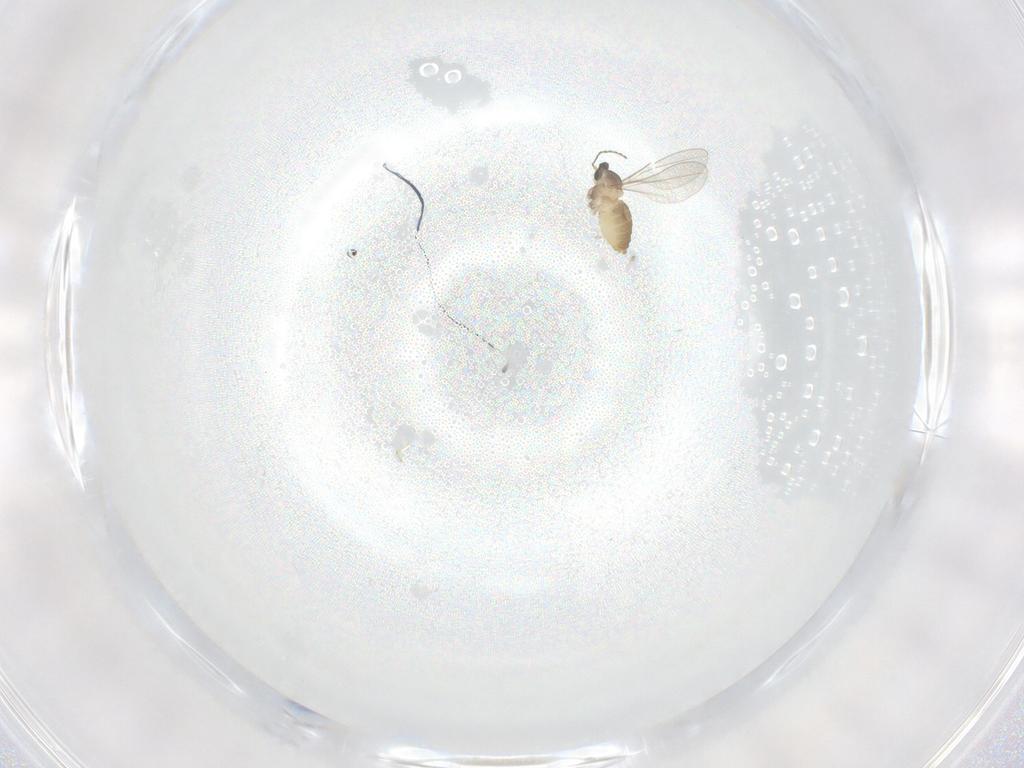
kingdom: Animalia
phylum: Arthropoda
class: Insecta
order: Diptera
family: Cecidomyiidae
